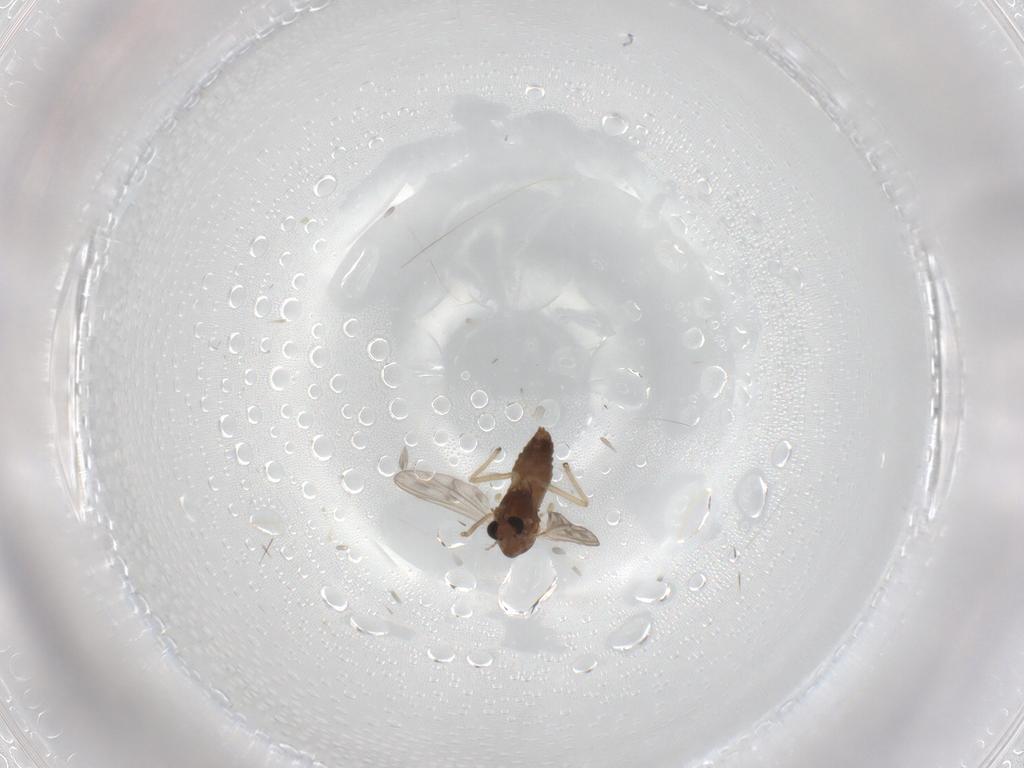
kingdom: Animalia
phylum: Arthropoda
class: Insecta
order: Diptera
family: Chironomidae
